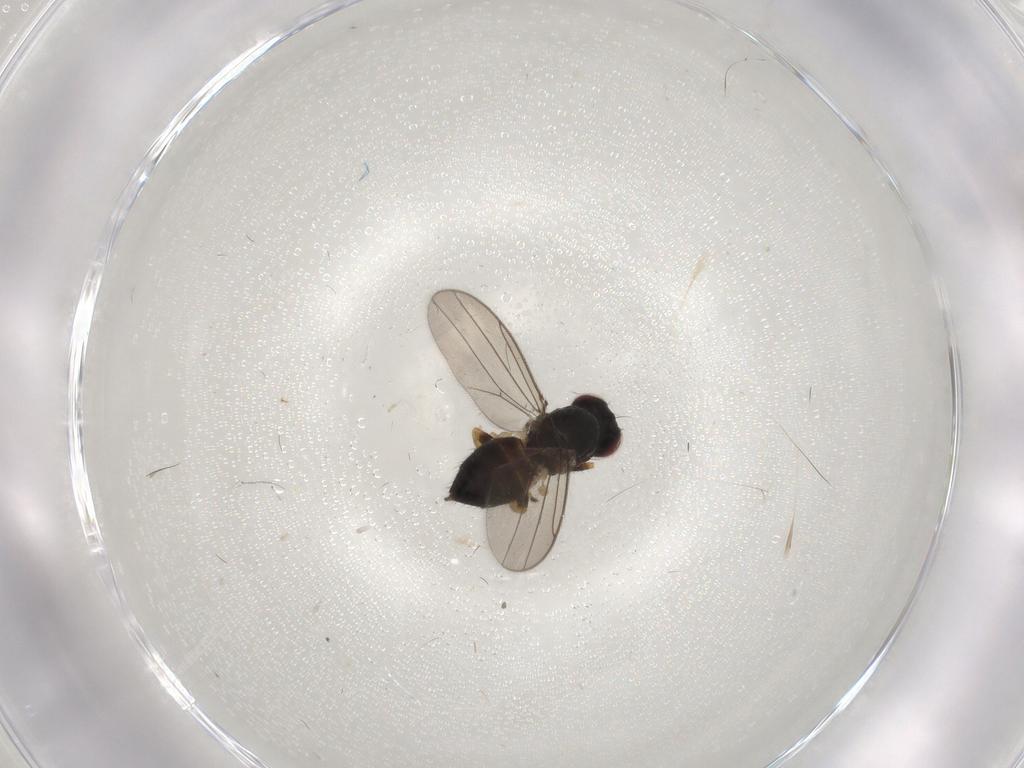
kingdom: Animalia
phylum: Arthropoda
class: Insecta
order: Diptera
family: Chloropidae
